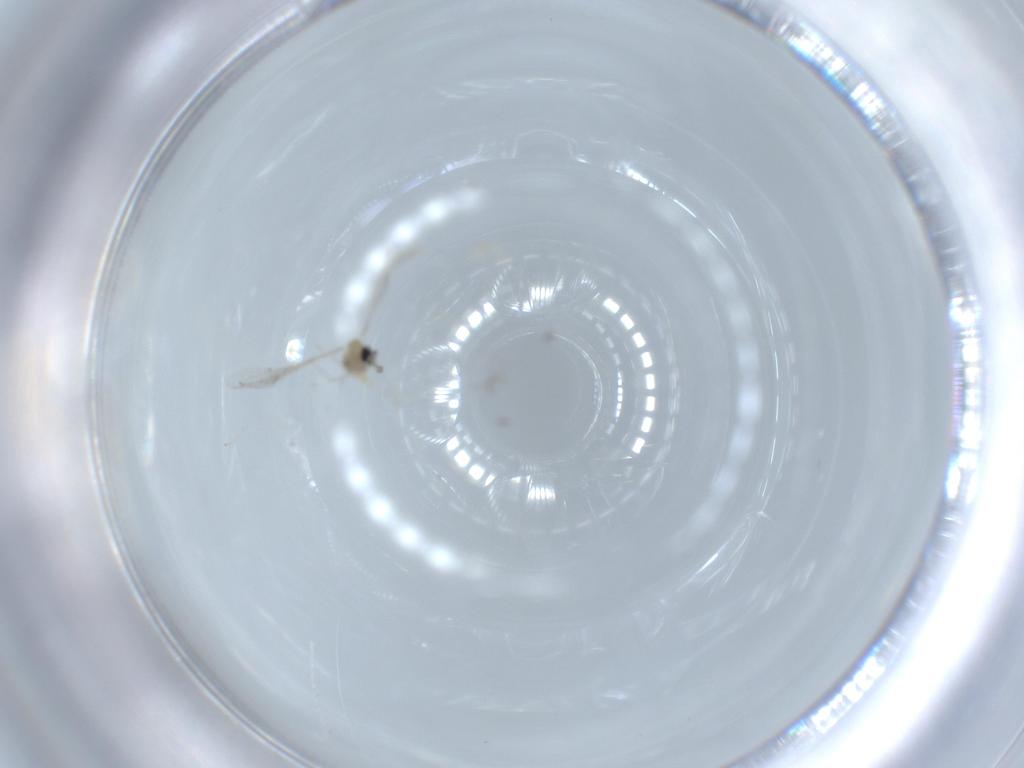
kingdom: Animalia
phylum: Arthropoda
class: Insecta
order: Diptera
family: Cecidomyiidae
